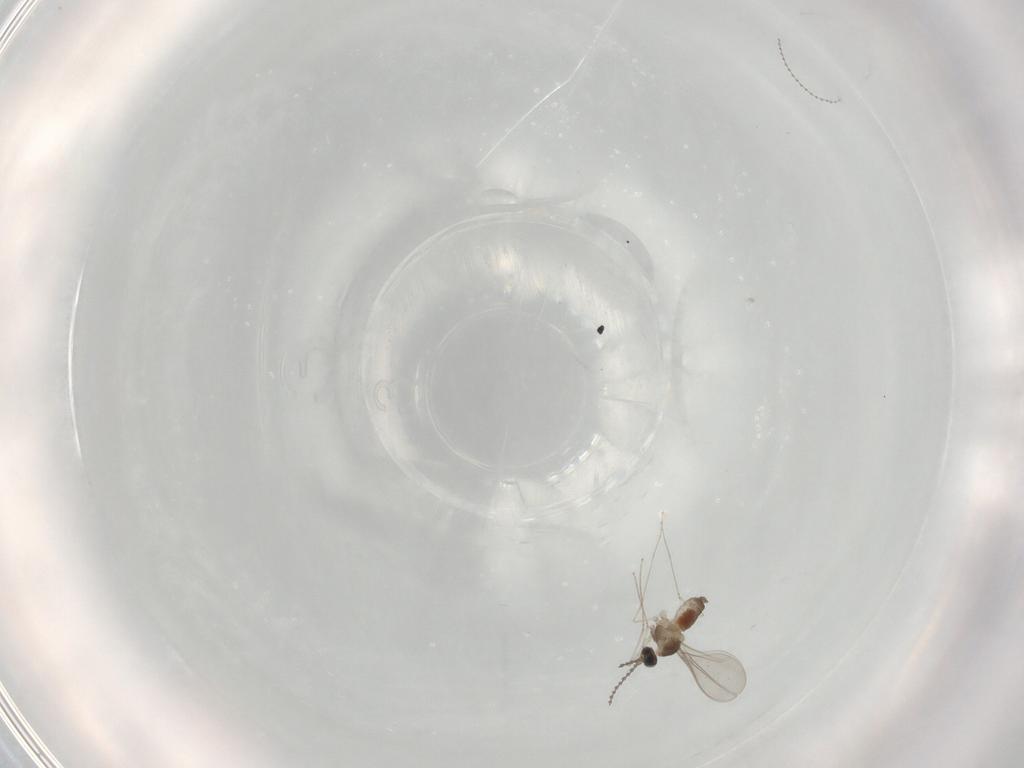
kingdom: Animalia
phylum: Arthropoda
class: Insecta
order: Diptera
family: Cecidomyiidae
